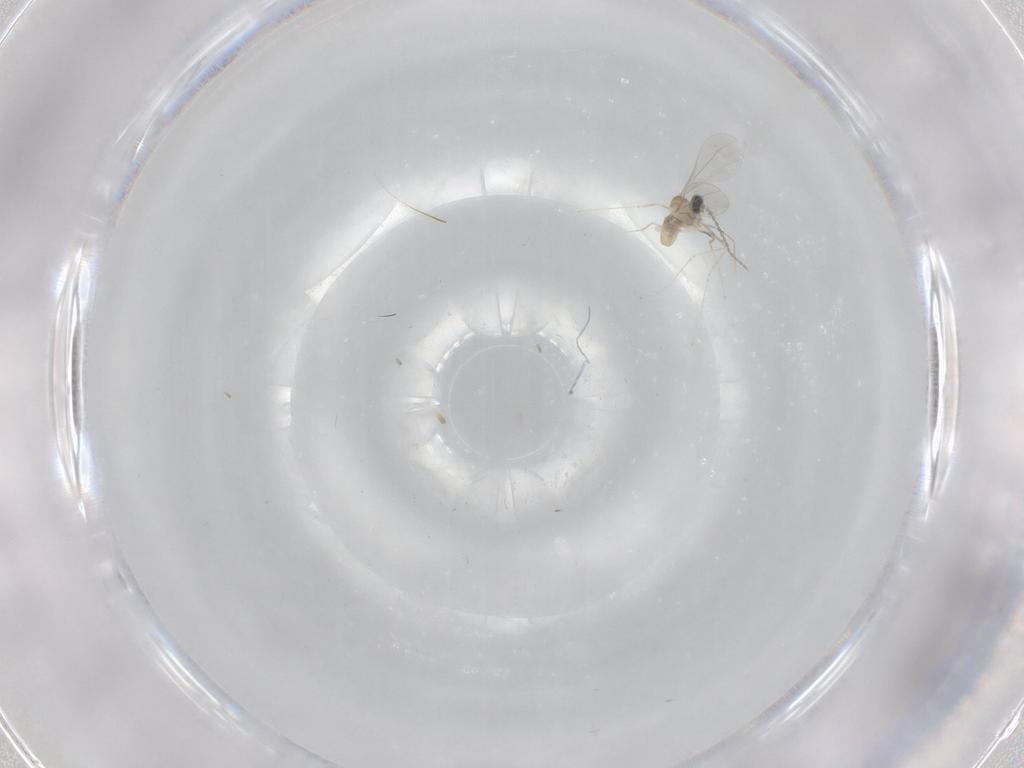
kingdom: Animalia
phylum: Arthropoda
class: Insecta
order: Diptera
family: Cecidomyiidae
